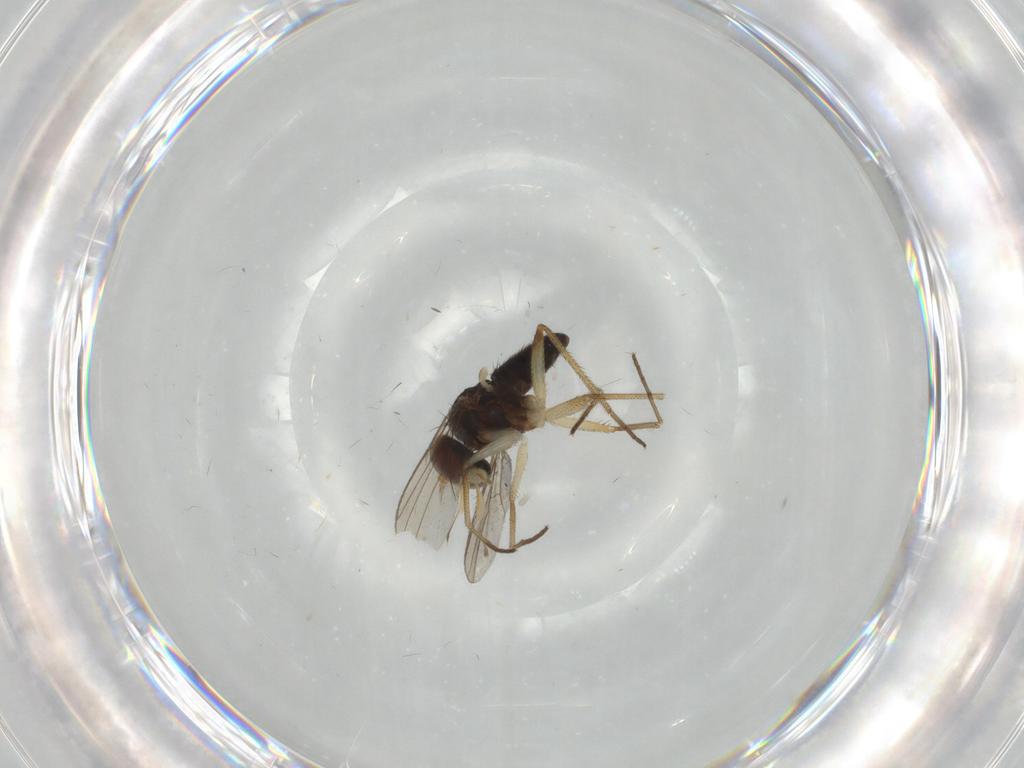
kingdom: Animalia
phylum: Arthropoda
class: Insecta
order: Diptera
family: Dolichopodidae
